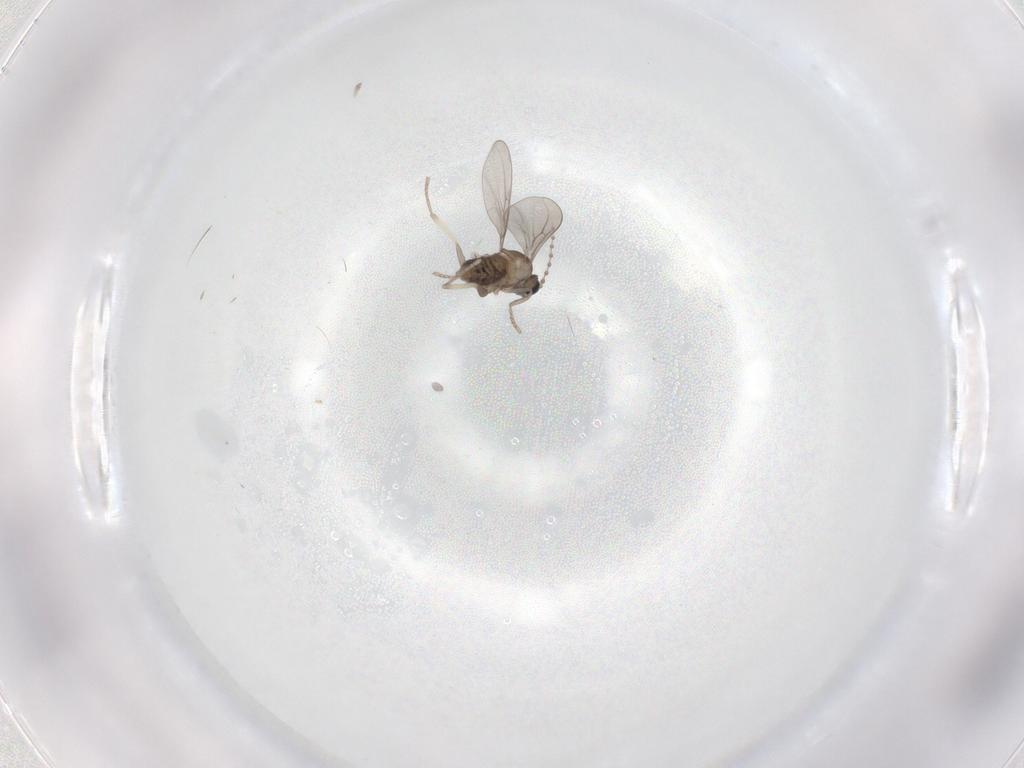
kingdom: Animalia
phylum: Arthropoda
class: Insecta
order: Diptera
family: Cecidomyiidae
